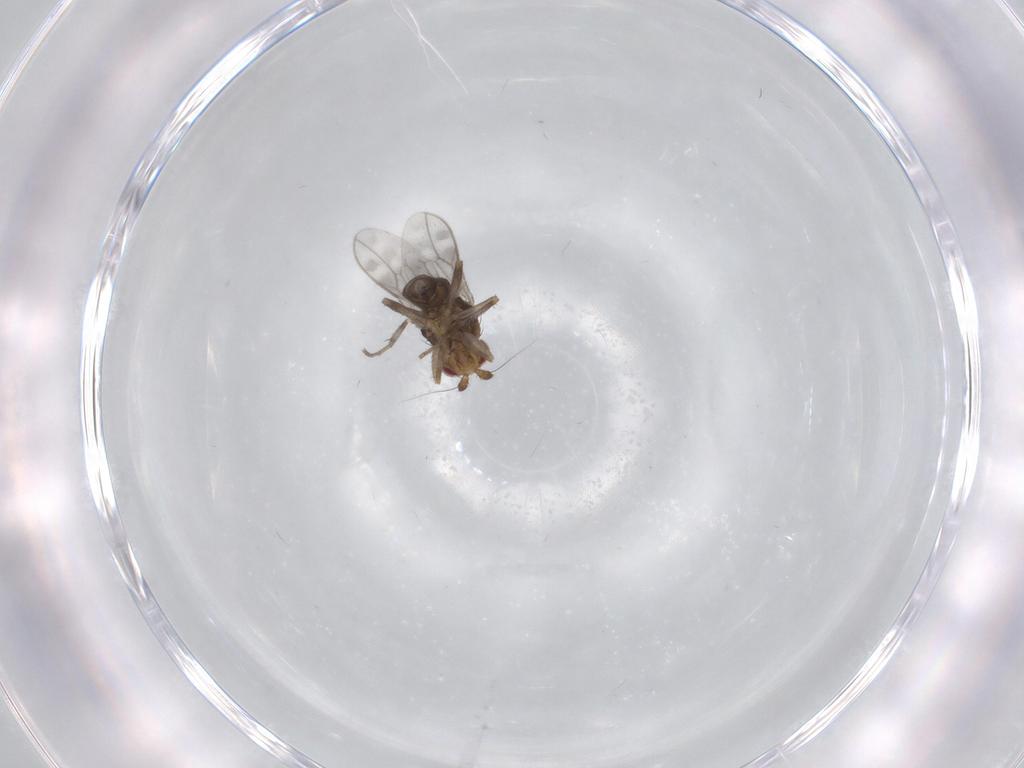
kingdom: Animalia
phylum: Arthropoda
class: Insecta
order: Diptera
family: Sphaeroceridae
